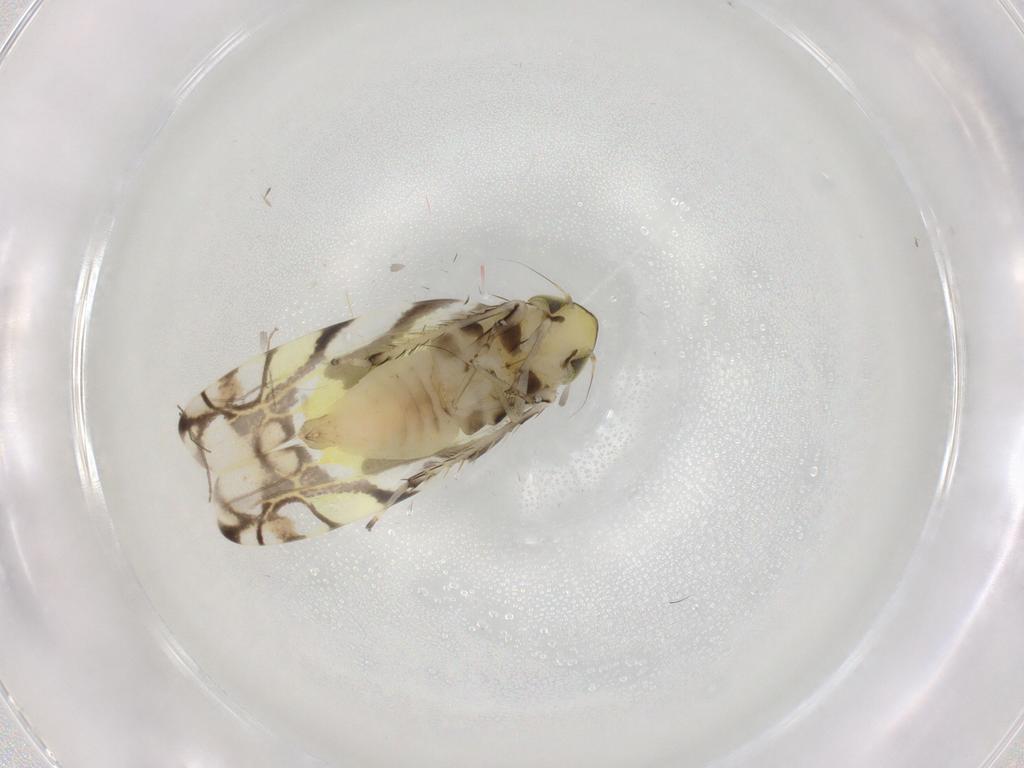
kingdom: Animalia
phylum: Arthropoda
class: Insecta
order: Hemiptera
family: Cicadellidae
